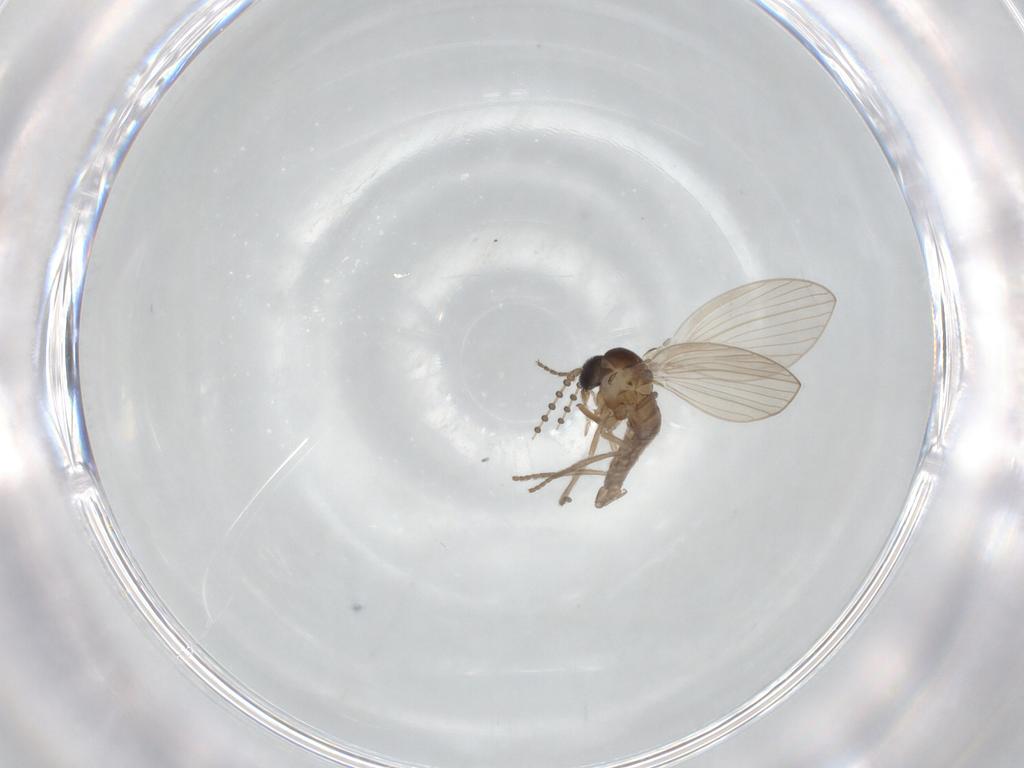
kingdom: Animalia
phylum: Arthropoda
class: Insecta
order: Diptera
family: Psychodidae
